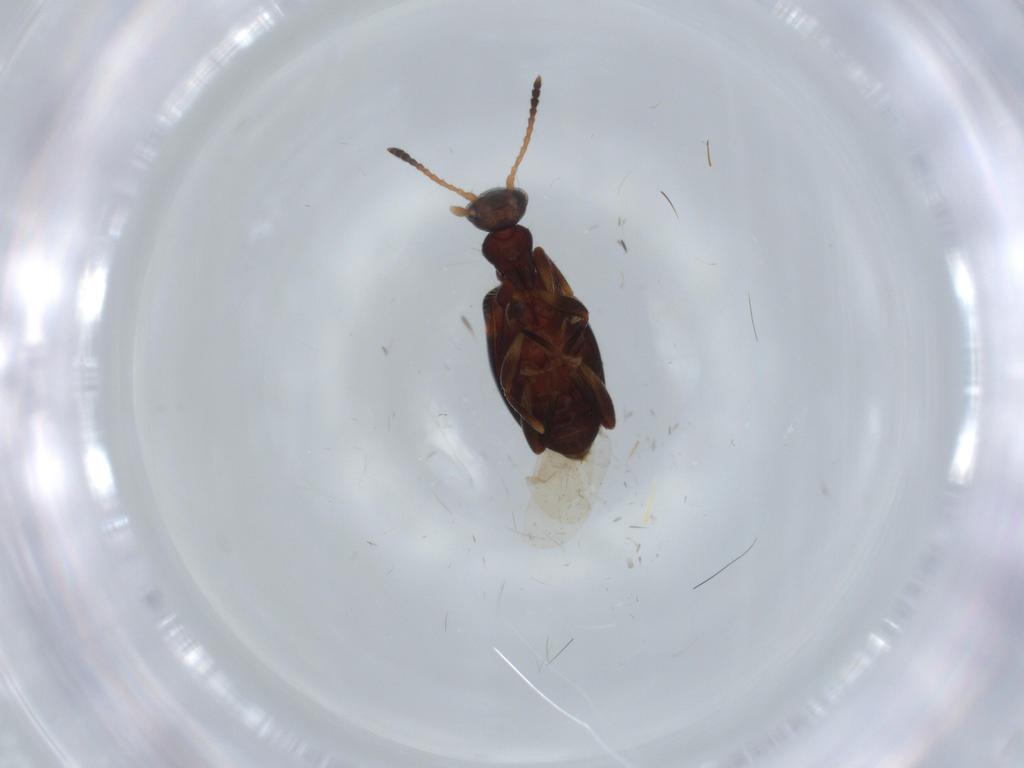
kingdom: Animalia
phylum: Arthropoda
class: Insecta
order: Coleoptera
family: Anthicidae
